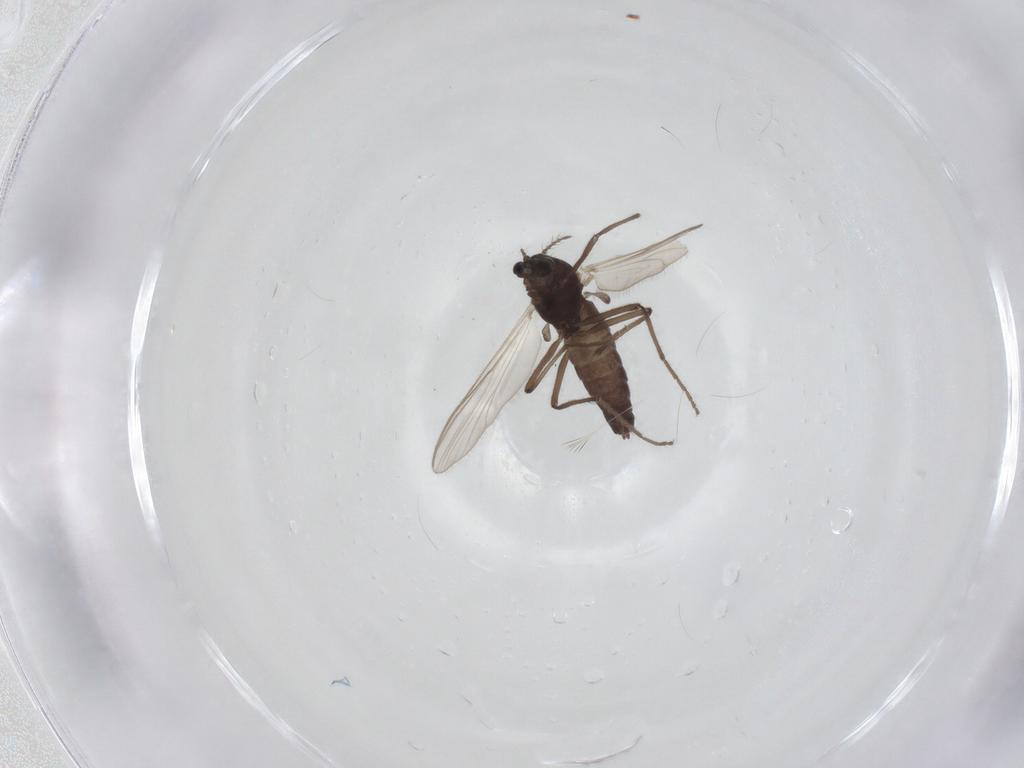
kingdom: Animalia
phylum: Arthropoda
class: Insecta
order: Diptera
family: Chironomidae
